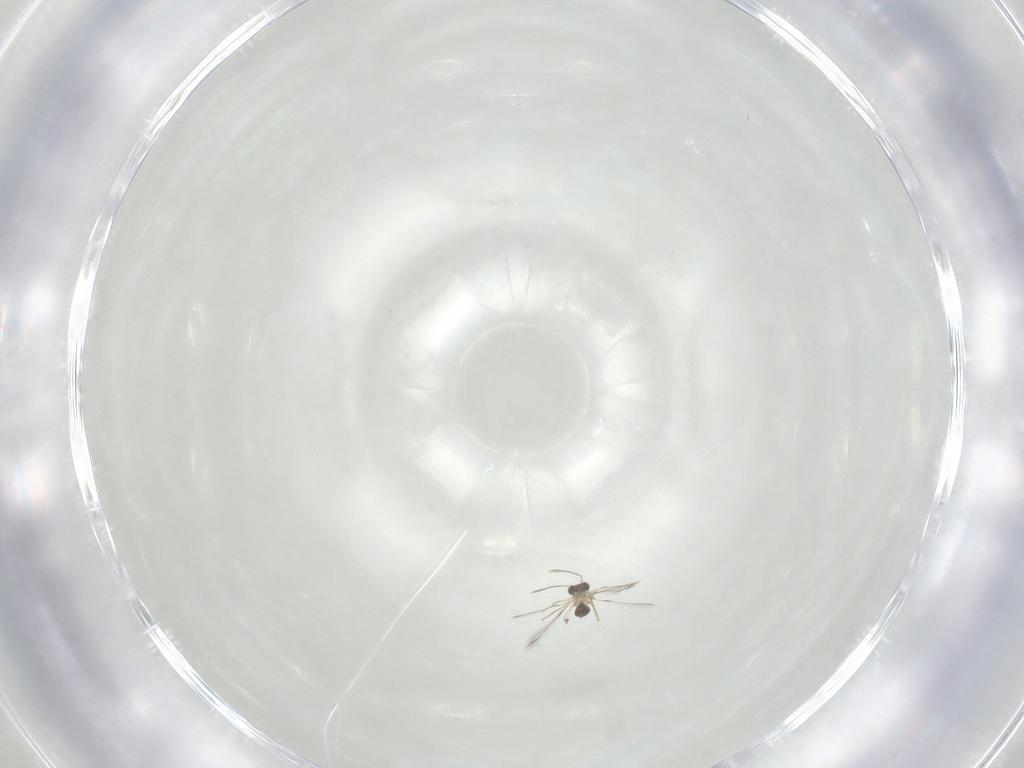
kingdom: Animalia
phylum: Arthropoda
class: Insecta
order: Hymenoptera
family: Mymaridae
